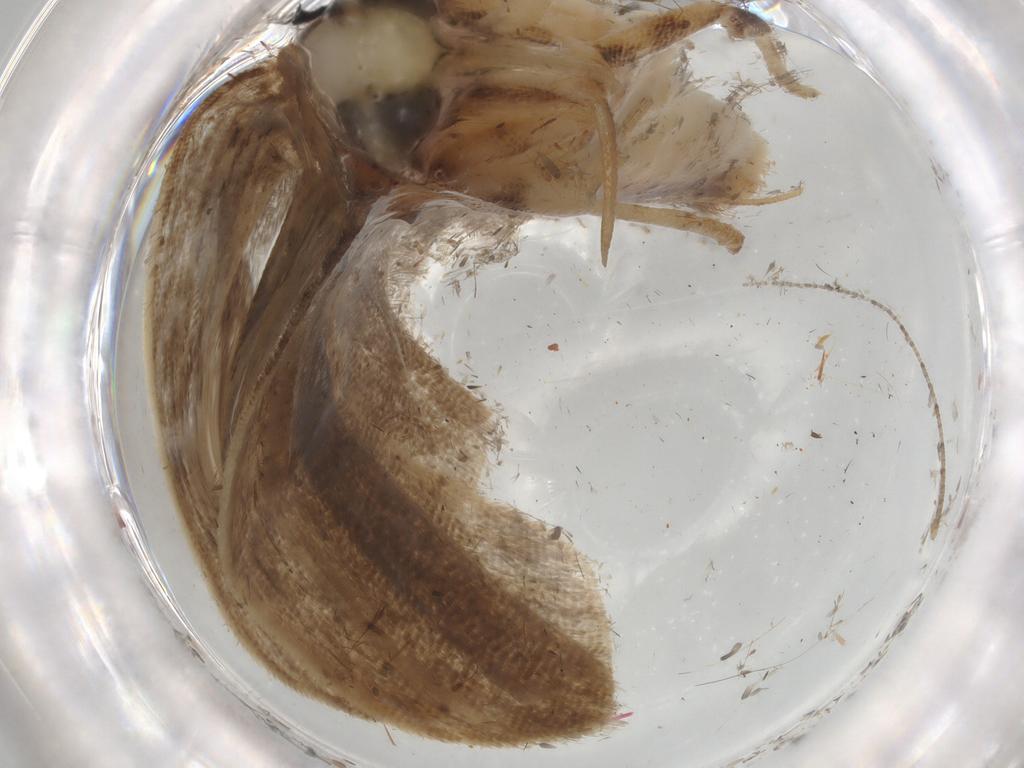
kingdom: Animalia
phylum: Arthropoda
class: Insecta
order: Lepidoptera
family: Gelechiidae
